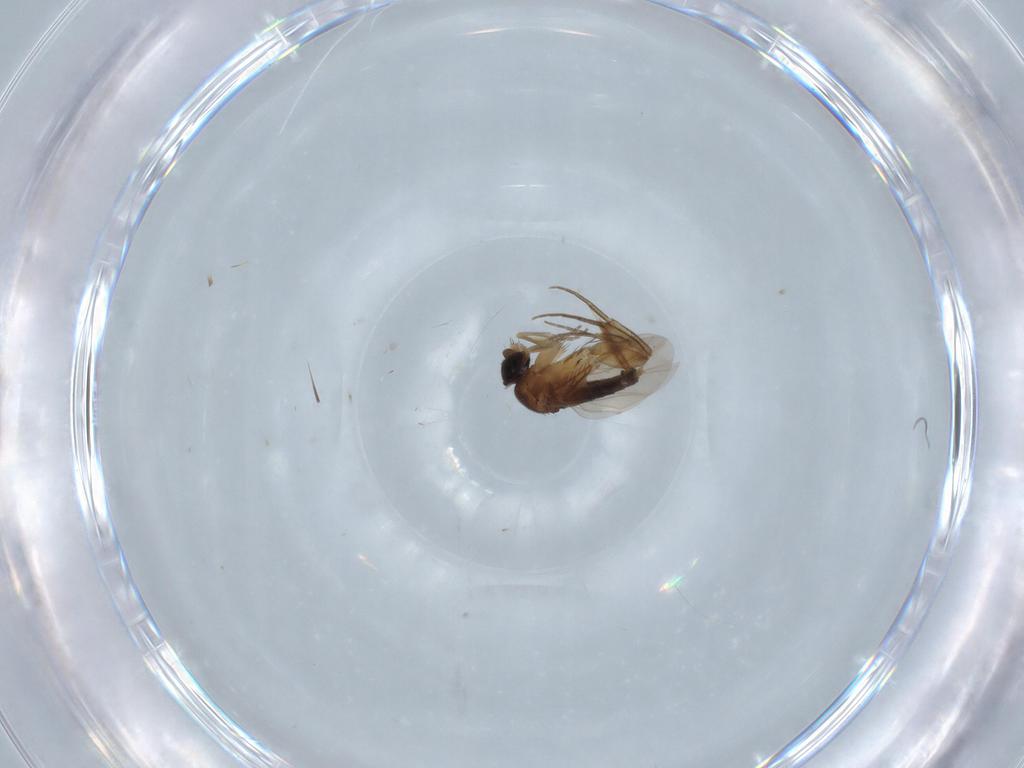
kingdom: Animalia
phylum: Arthropoda
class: Insecta
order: Diptera
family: Phoridae
